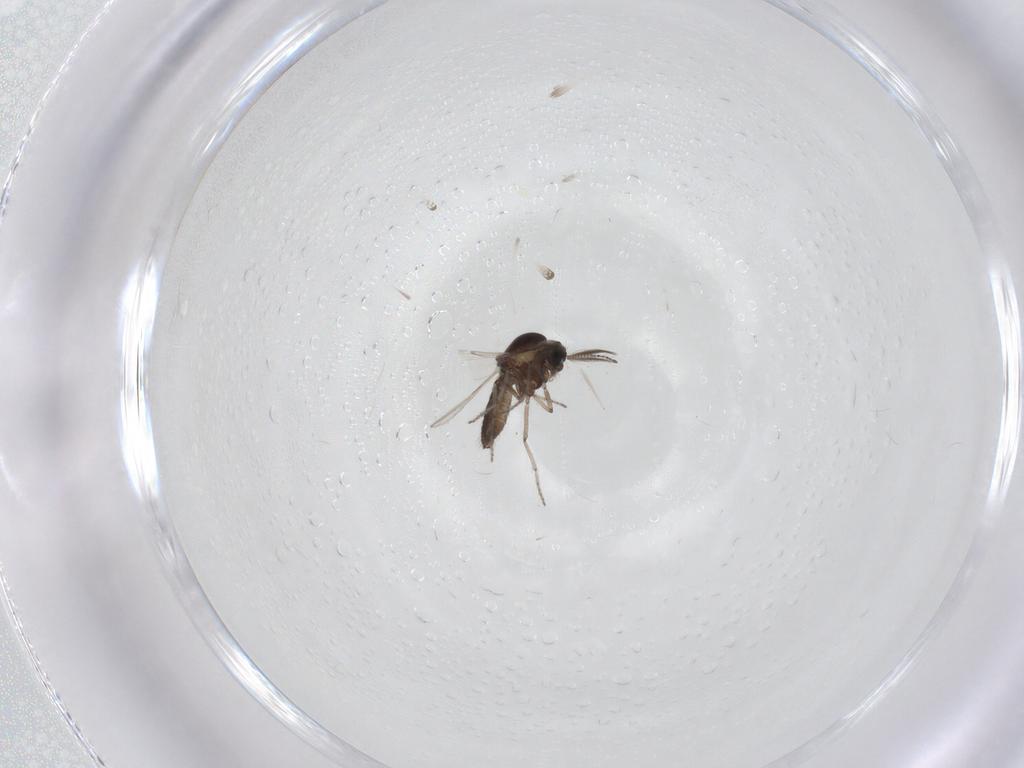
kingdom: Animalia
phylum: Arthropoda
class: Insecta
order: Diptera
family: Ceratopogonidae
